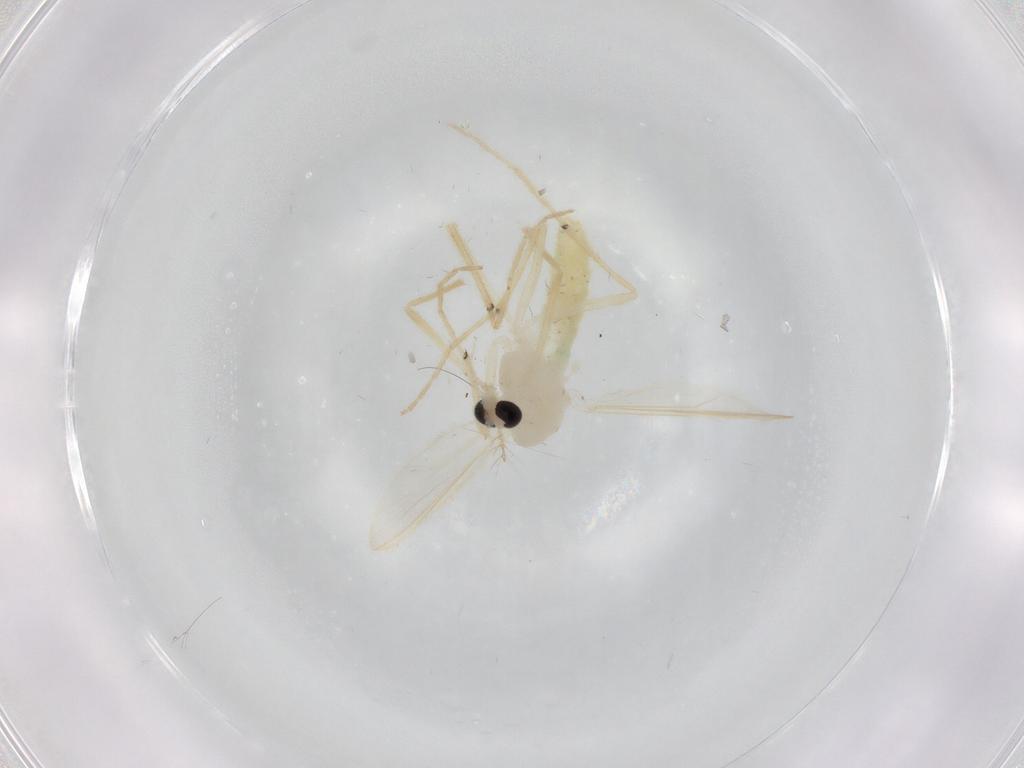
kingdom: Animalia
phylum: Arthropoda
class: Insecta
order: Diptera
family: Chironomidae
